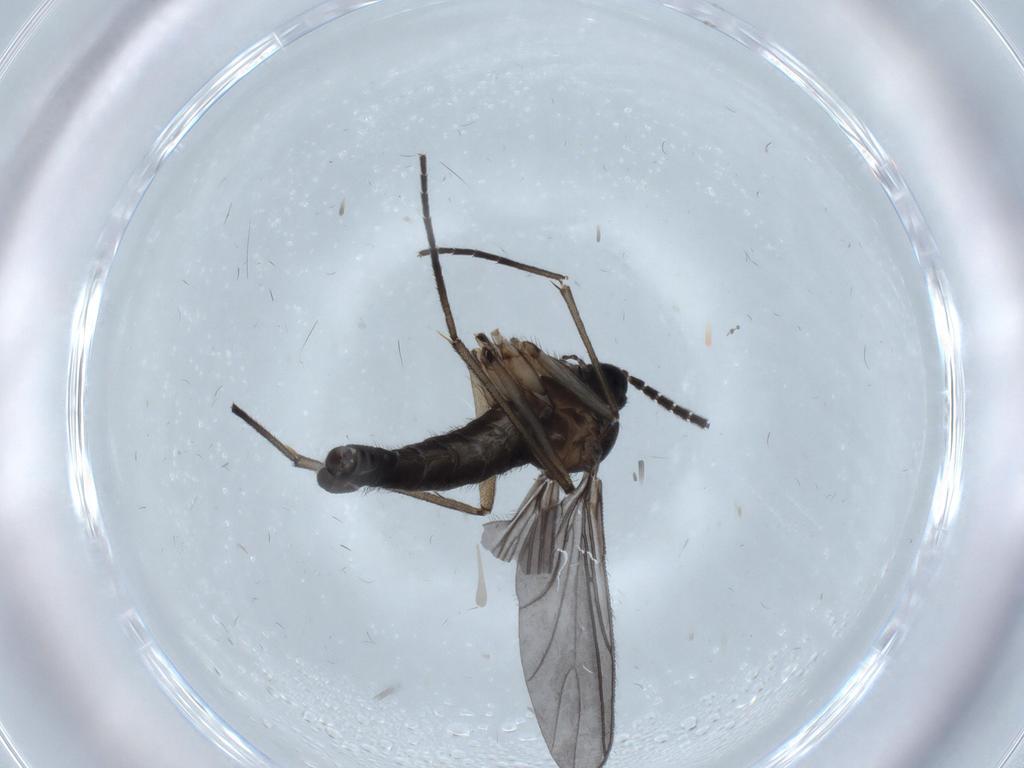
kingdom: Animalia
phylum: Arthropoda
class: Insecta
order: Diptera
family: Sciaridae
